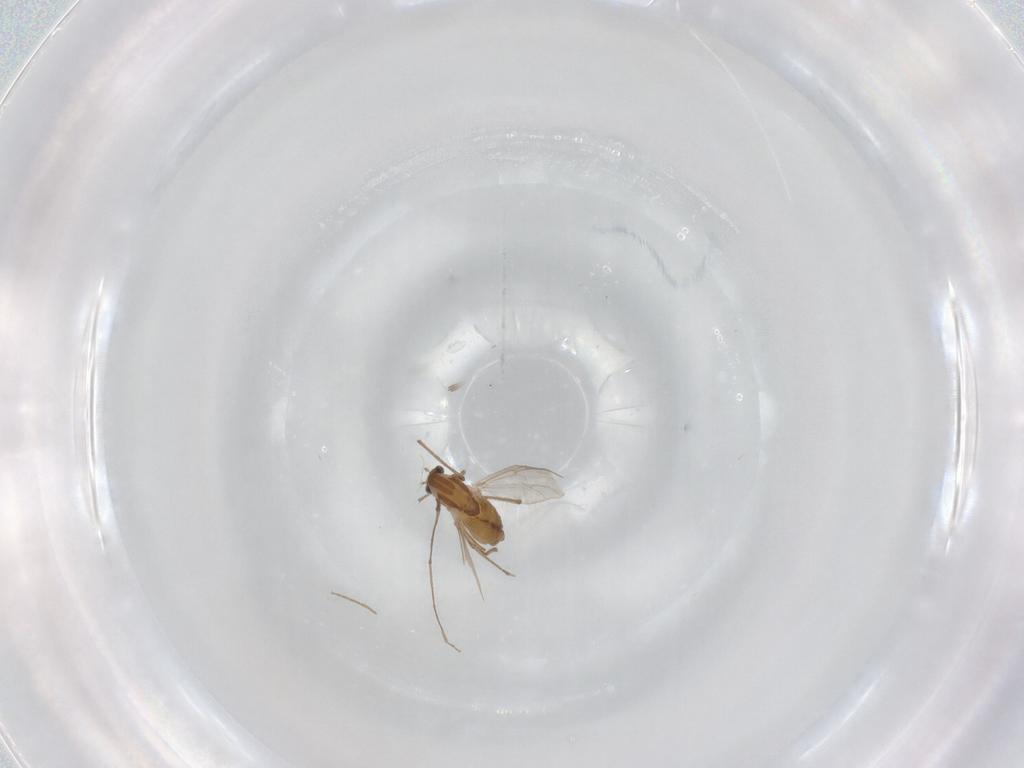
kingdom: Animalia
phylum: Arthropoda
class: Insecta
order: Diptera
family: Chironomidae
